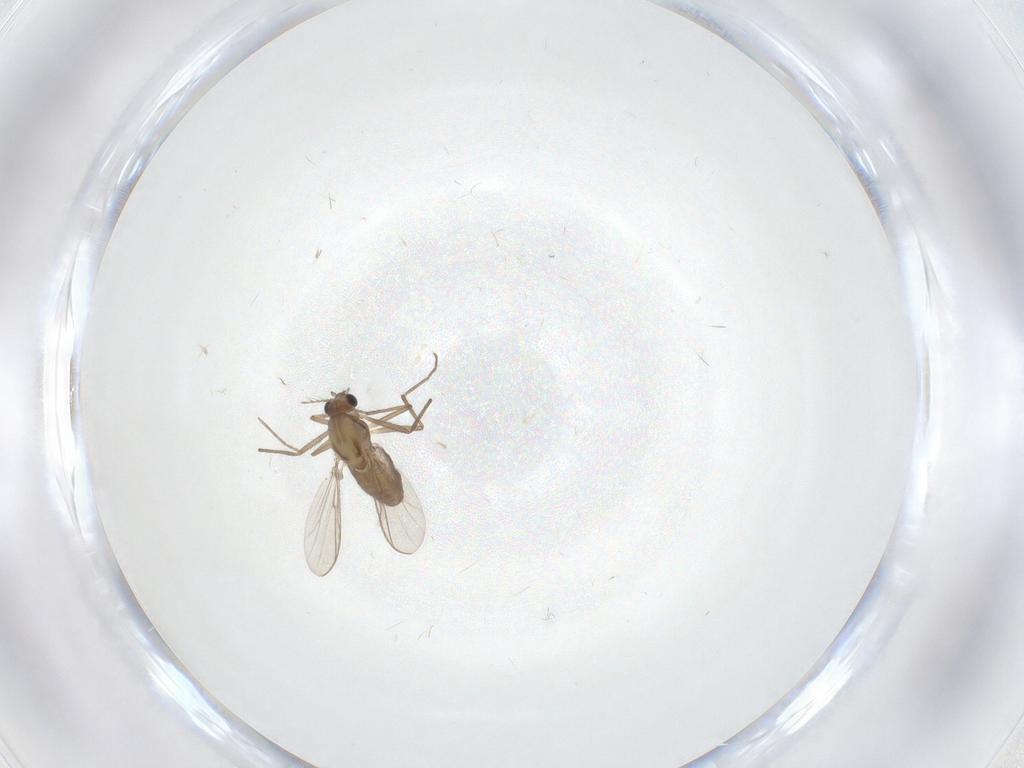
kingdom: Animalia
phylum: Arthropoda
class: Insecta
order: Diptera
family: Chironomidae
